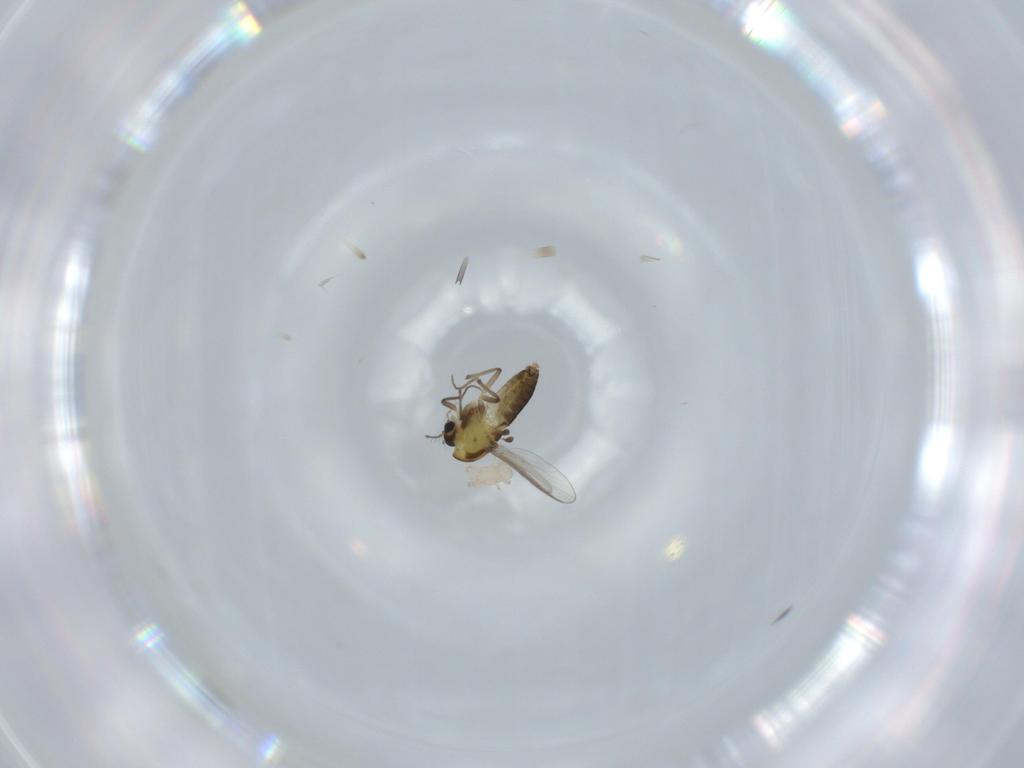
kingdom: Animalia
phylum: Arthropoda
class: Insecta
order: Diptera
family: Chironomidae
